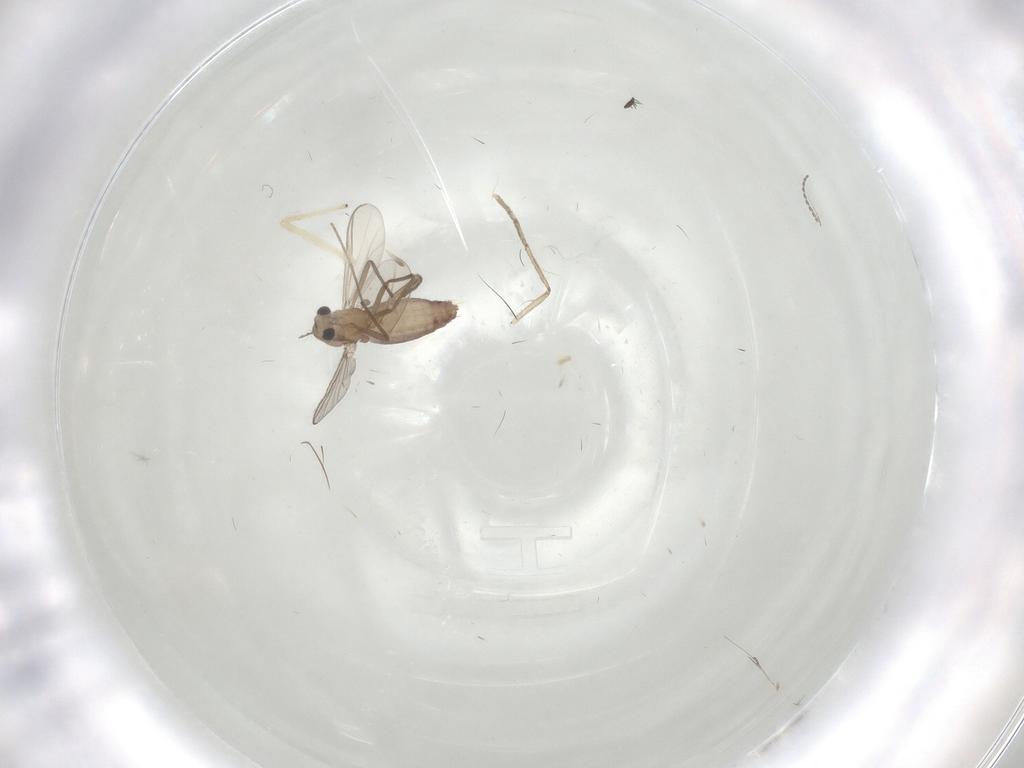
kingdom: Animalia
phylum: Arthropoda
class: Insecta
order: Diptera
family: Chironomidae
